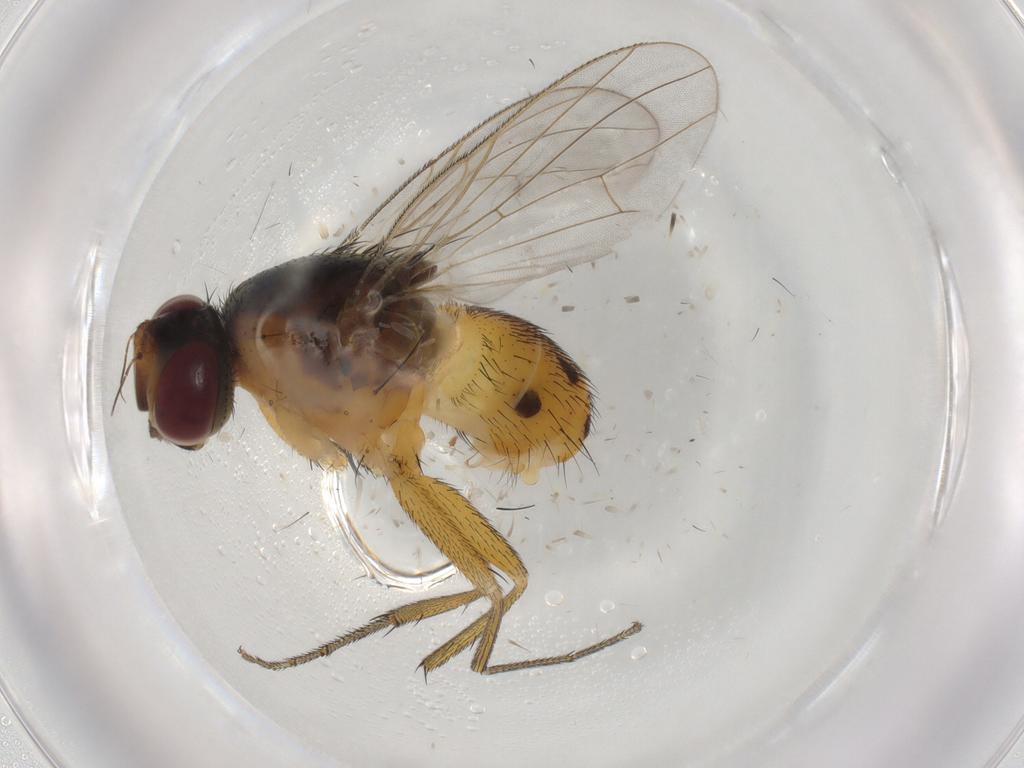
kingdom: Animalia
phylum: Arthropoda
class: Insecta
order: Diptera
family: Muscidae
